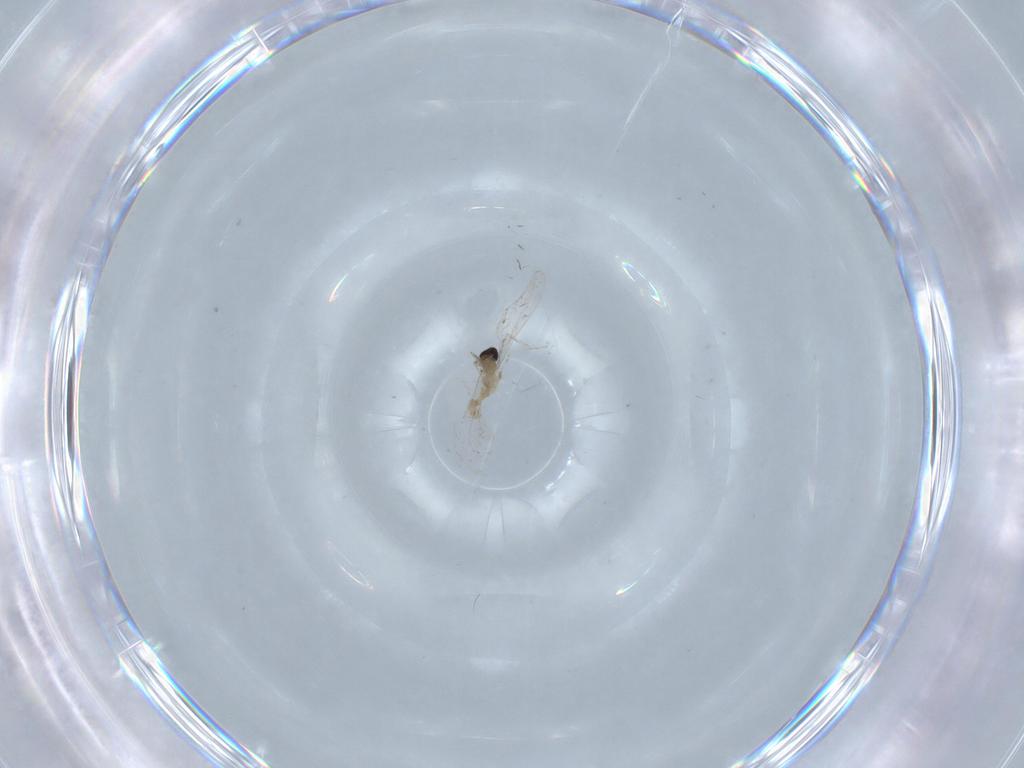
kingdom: Animalia
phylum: Arthropoda
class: Insecta
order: Diptera
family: Cecidomyiidae
